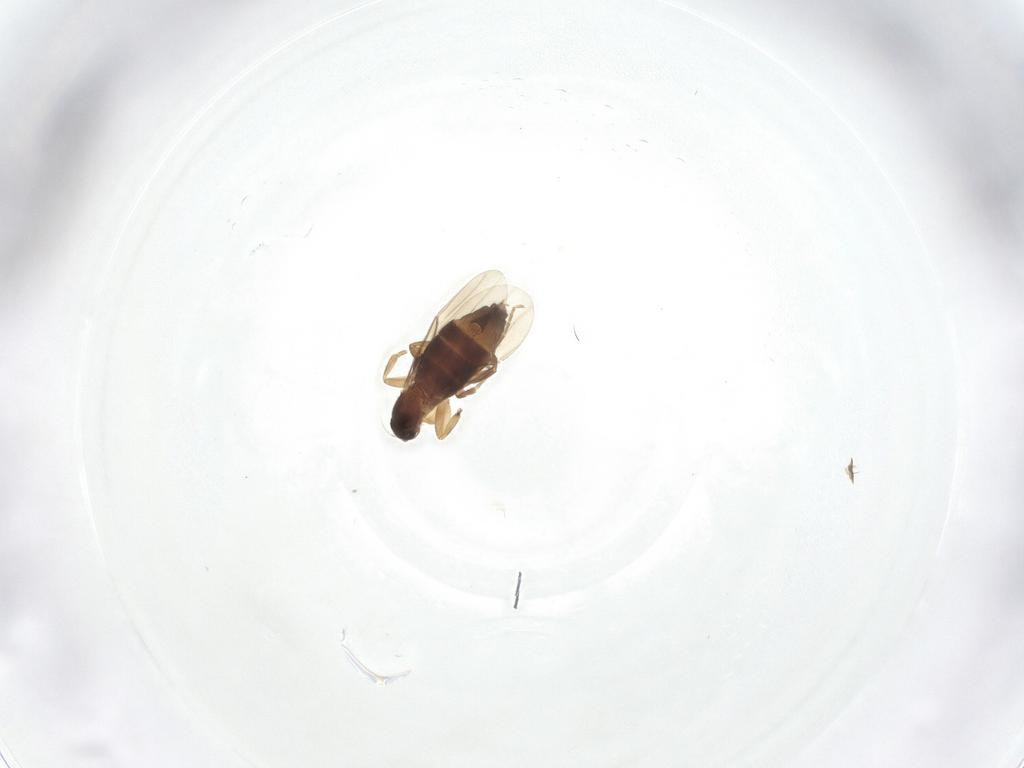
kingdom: Animalia
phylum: Arthropoda
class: Insecta
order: Diptera
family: Phoridae
